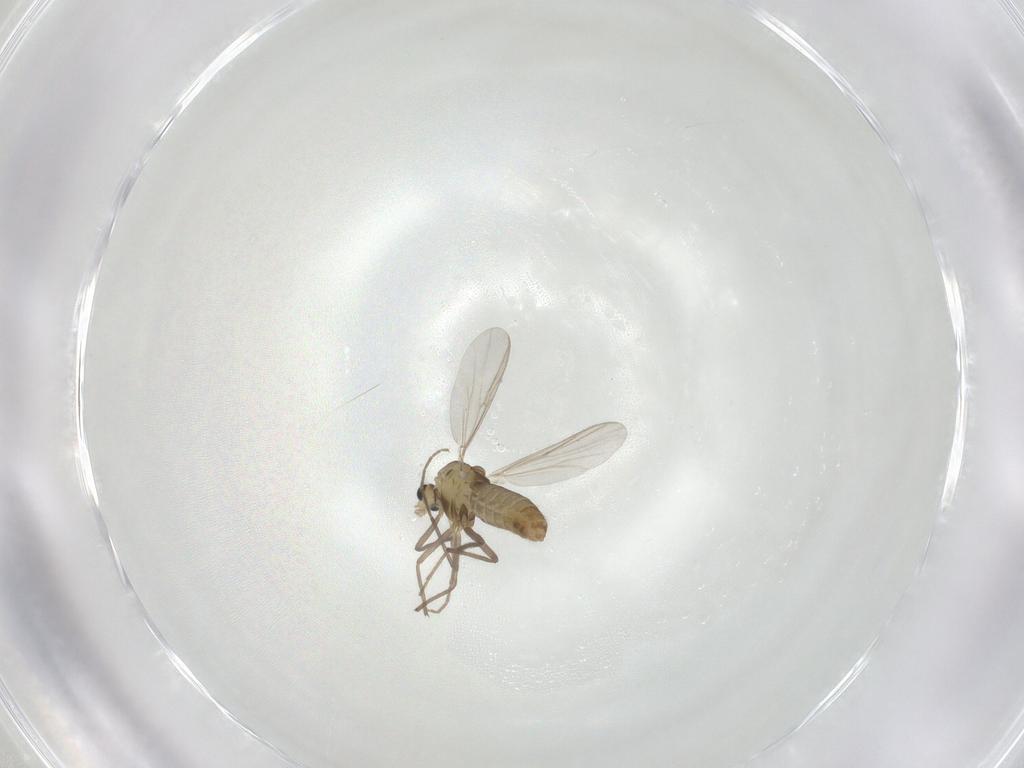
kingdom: Animalia
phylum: Arthropoda
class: Insecta
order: Diptera
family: Chironomidae
